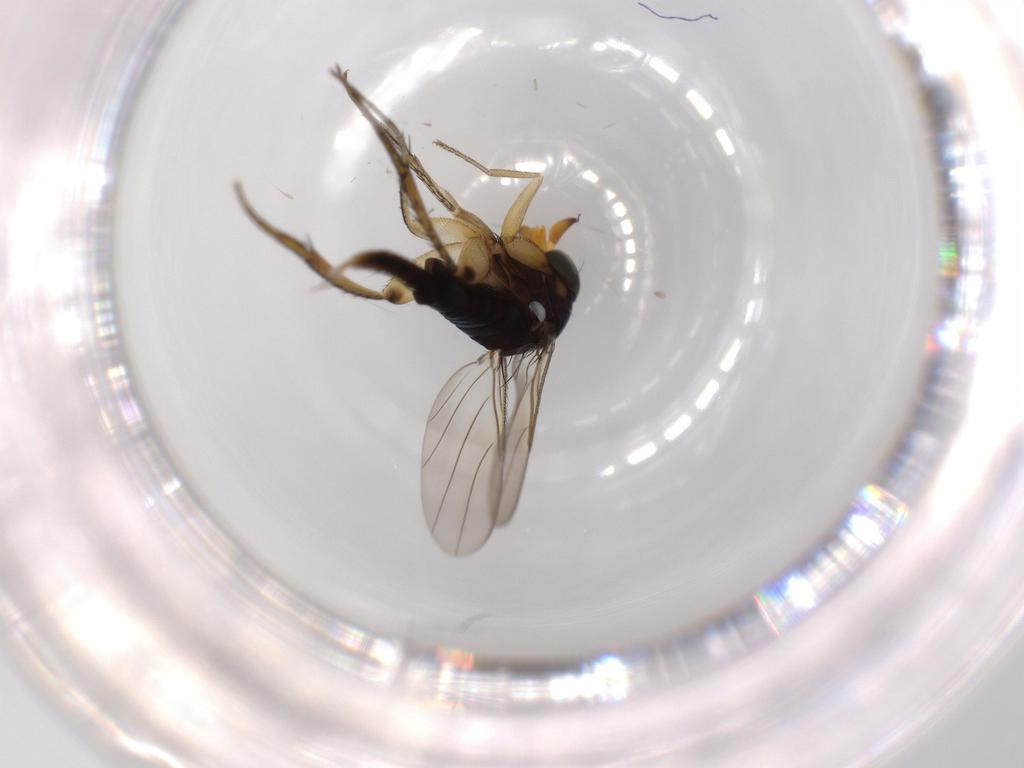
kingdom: Animalia
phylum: Arthropoda
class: Insecta
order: Diptera
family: Phoridae
